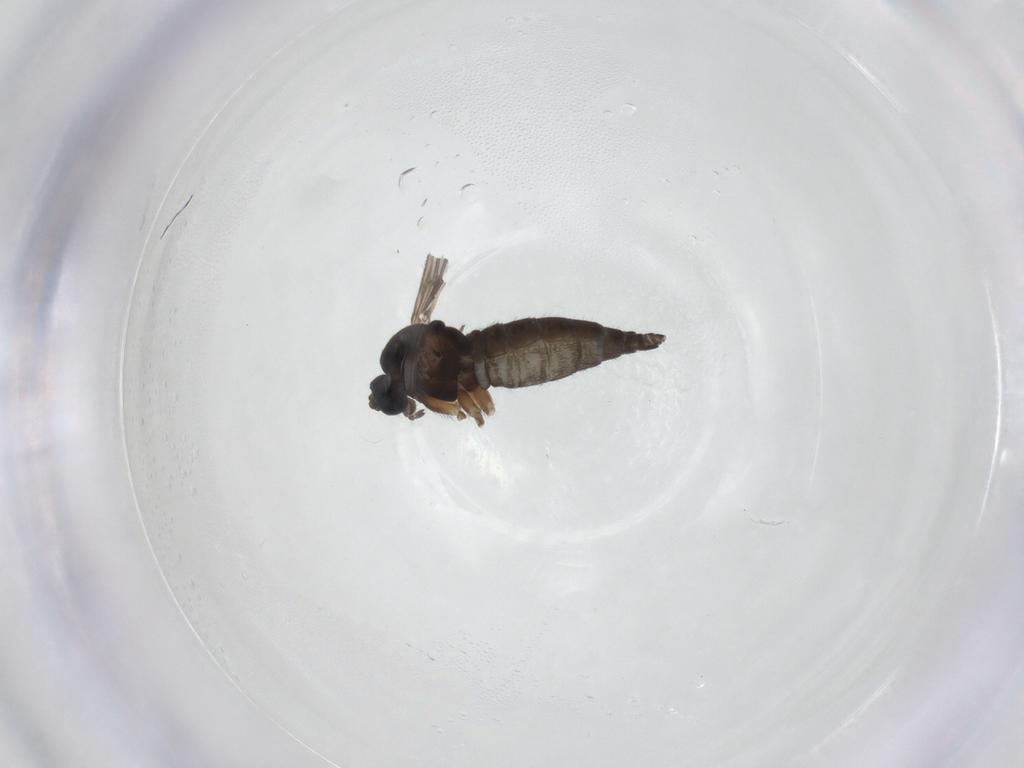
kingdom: Animalia
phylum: Arthropoda
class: Insecta
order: Diptera
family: Sciaridae
